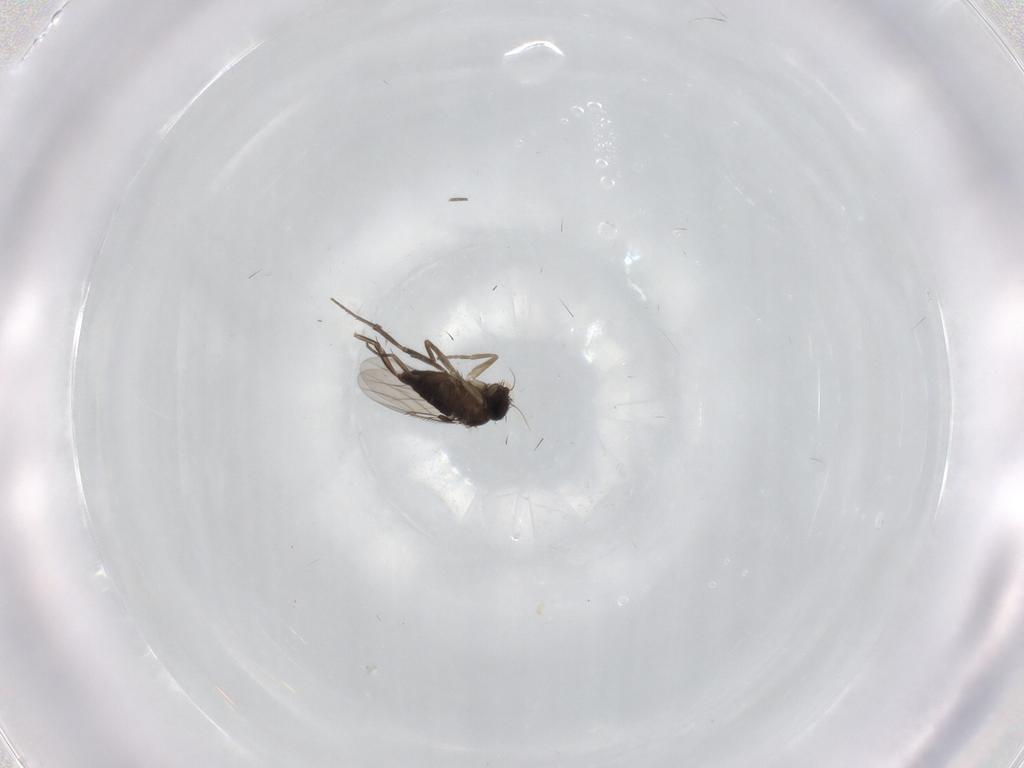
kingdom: Animalia
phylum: Arthropoda
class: Insecta
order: Diptera
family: Phoridae
